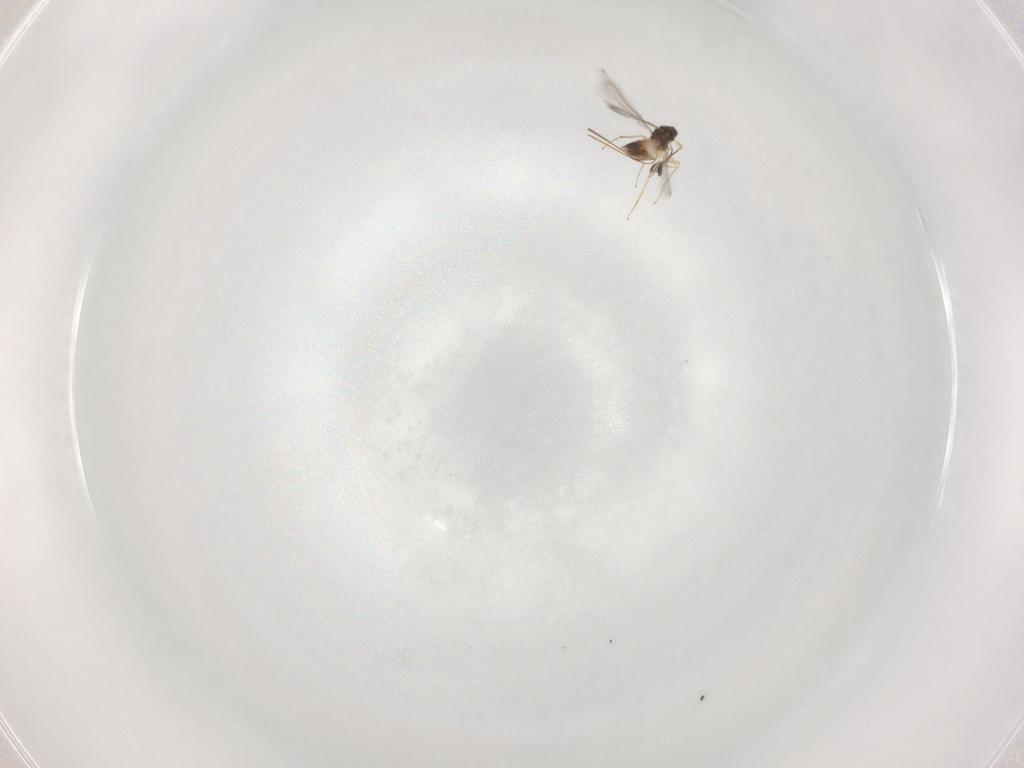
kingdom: Animalia
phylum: Arthropoda
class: Insecta
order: Hymenoptera
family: Mymaridae
